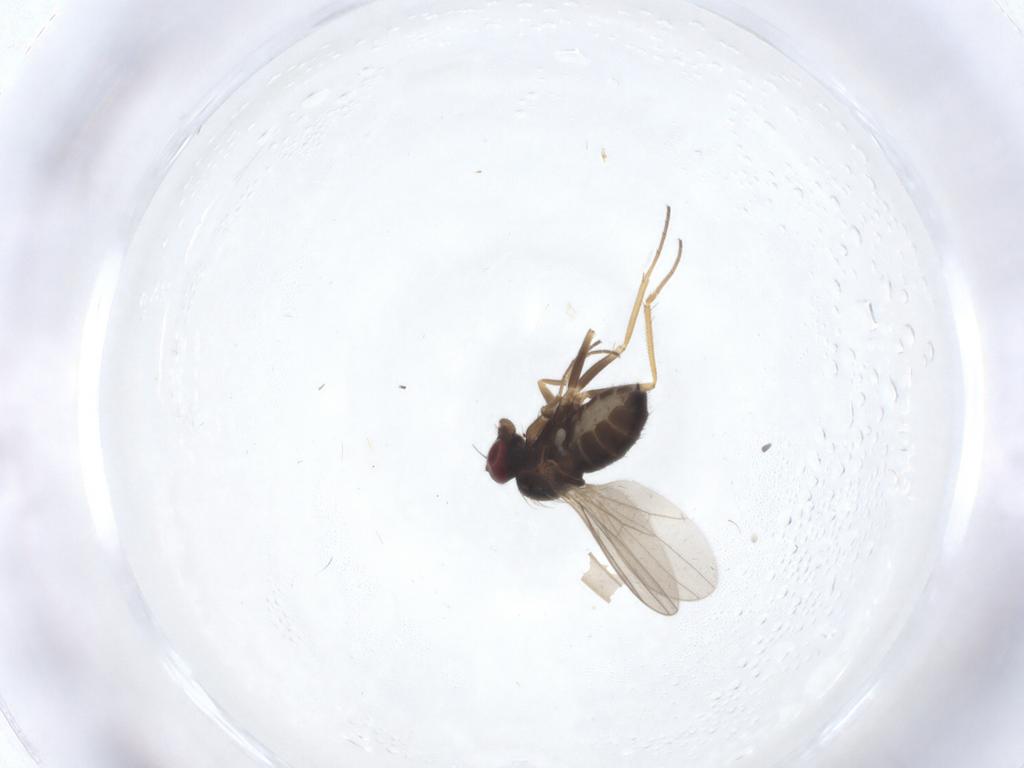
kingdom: Animalia
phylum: Arthropoda
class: Insecta
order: Diptera
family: Dolichopodidae
